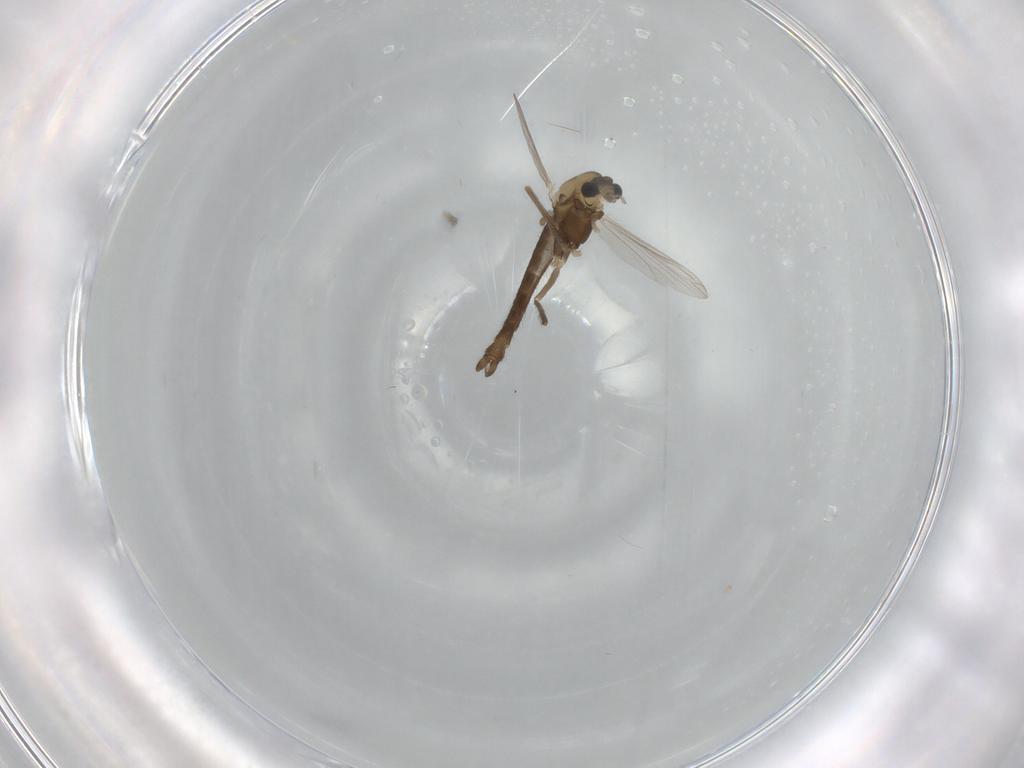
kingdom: Animalia
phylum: Arthropoda
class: Insecta
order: Diptera
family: Chironomidae
